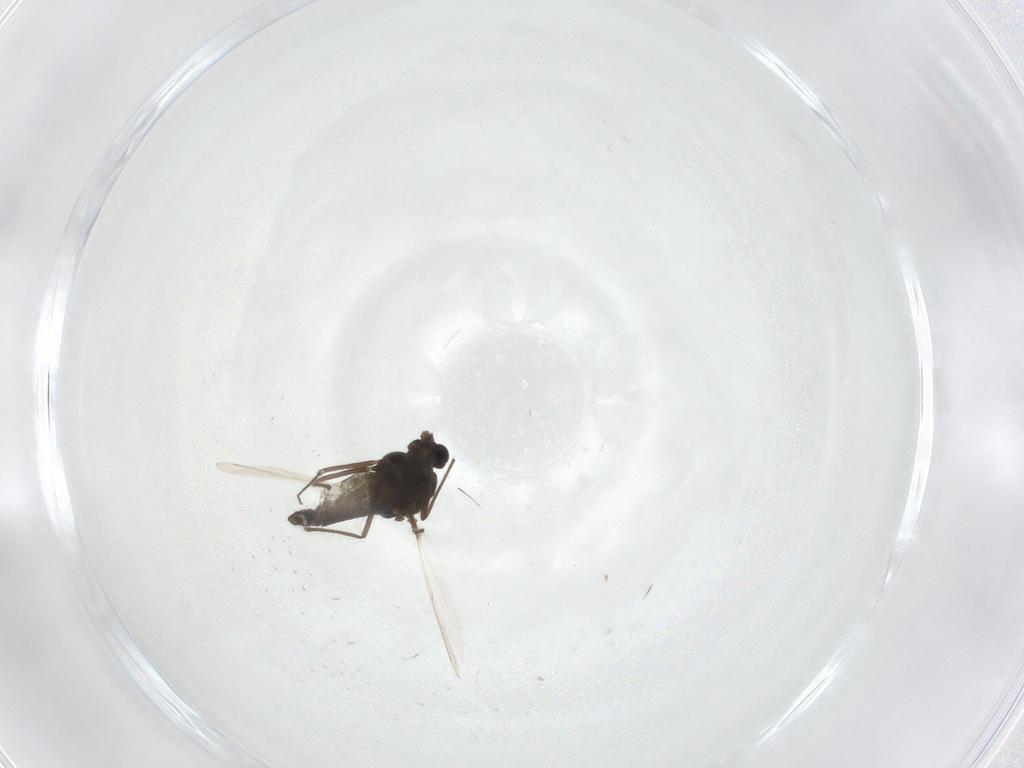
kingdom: Animalia
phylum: Arthropoda
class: Insecta
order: Diptera
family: Chironomidae
